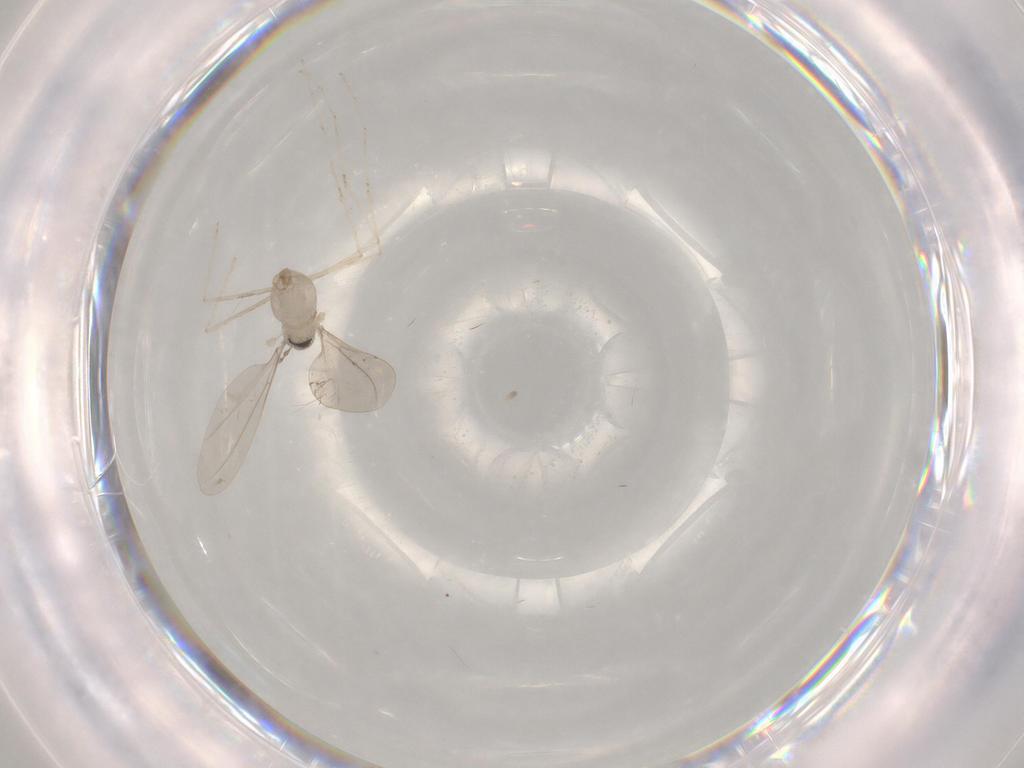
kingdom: Animalia
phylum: Arthropoda
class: Insecta
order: Diptera
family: Cecidomyiidae
